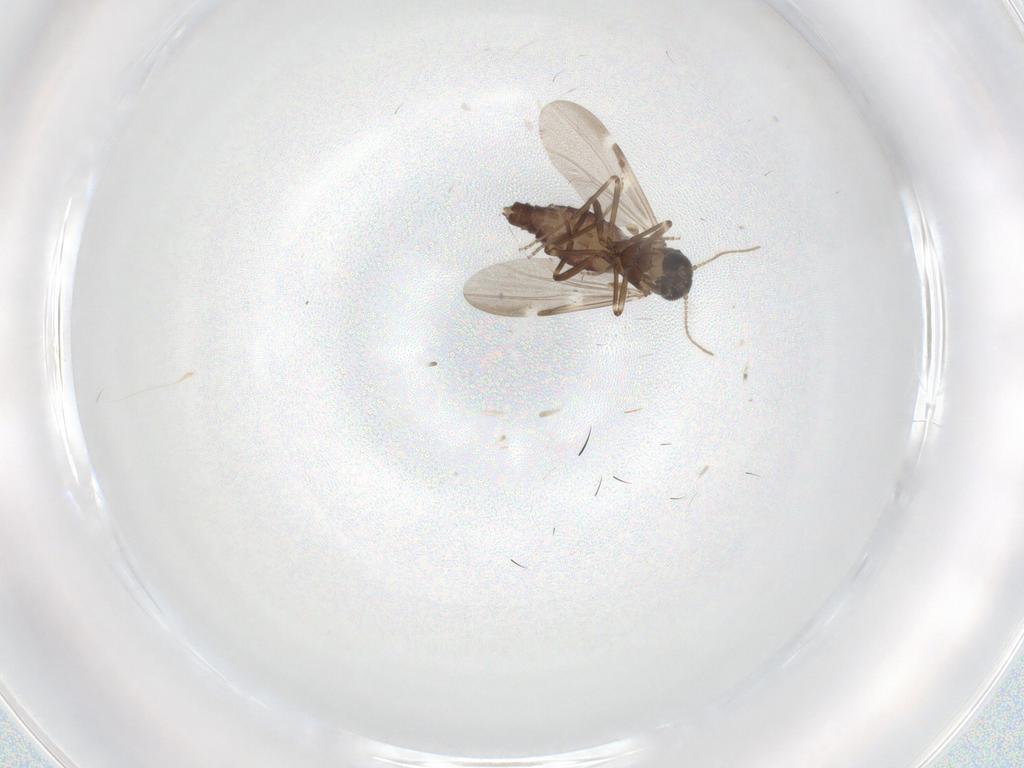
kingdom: Animalia
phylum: Arthropoda
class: Insecta
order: Diptera
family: Ceratopogonidae
